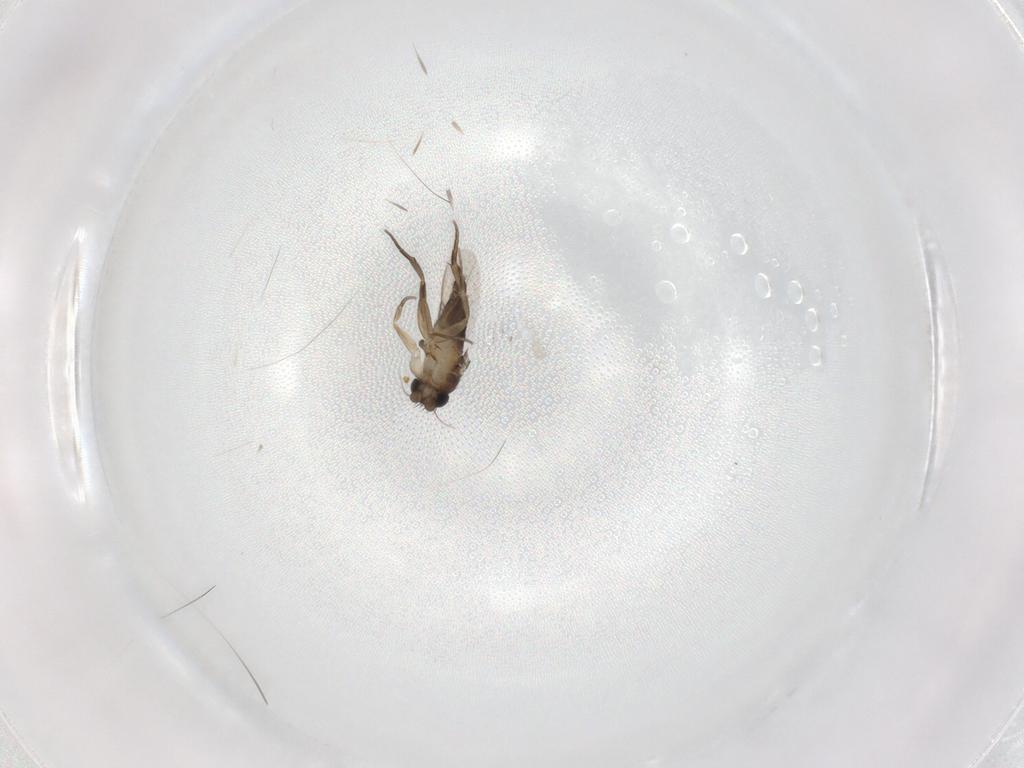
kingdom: Animalia
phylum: Arthropoda
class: Insecta
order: Diptera
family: Phoridae
